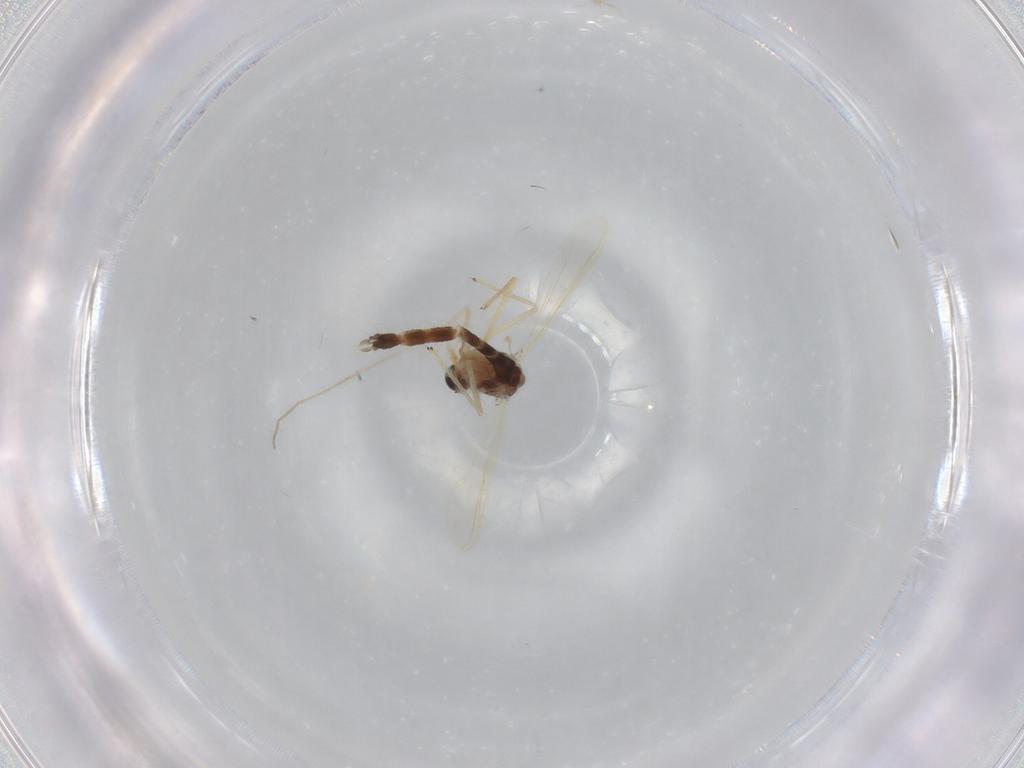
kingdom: Animalia
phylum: Arthropoda
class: Insecta
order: Diptera
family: Chironomidae
